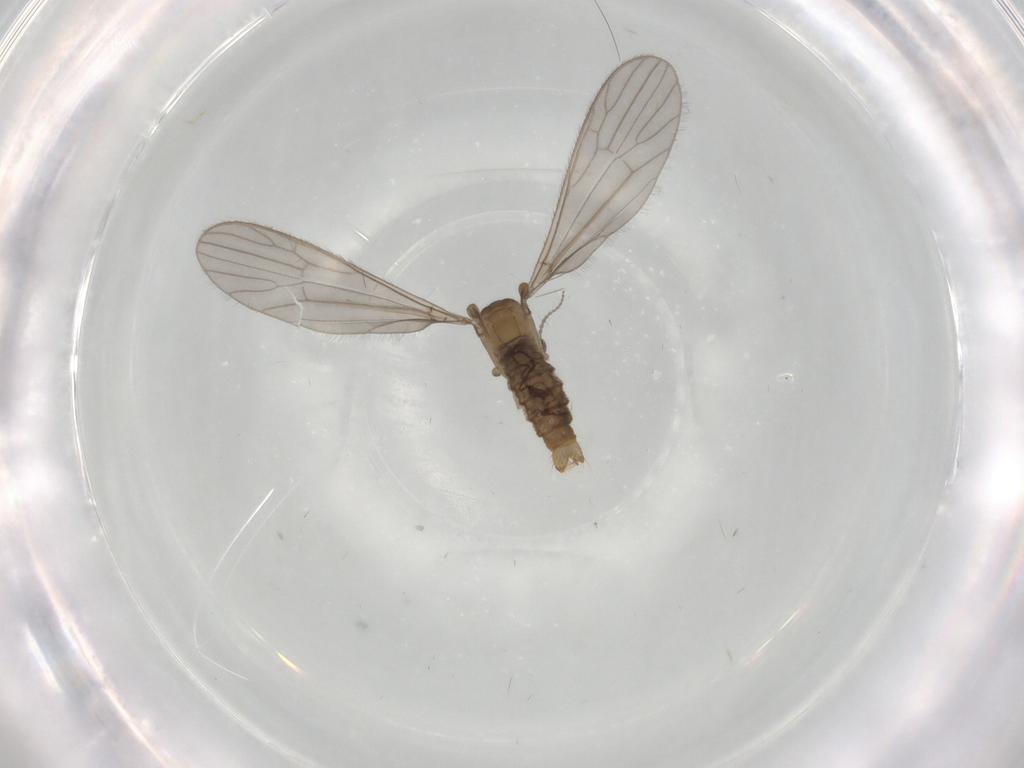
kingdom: Animalia
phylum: Arthropoda
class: Insecta
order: Diptera
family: Limoniidae
